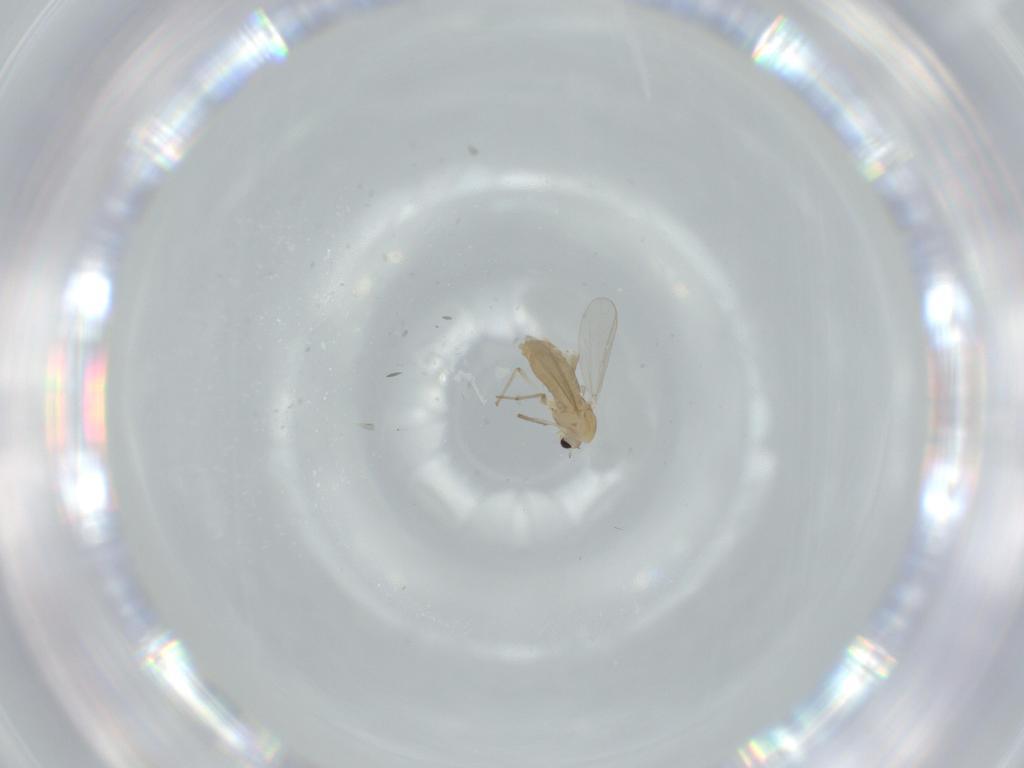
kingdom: Animalia
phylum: Arthropoda
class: Insecta
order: Diptera
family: Chironomidae
